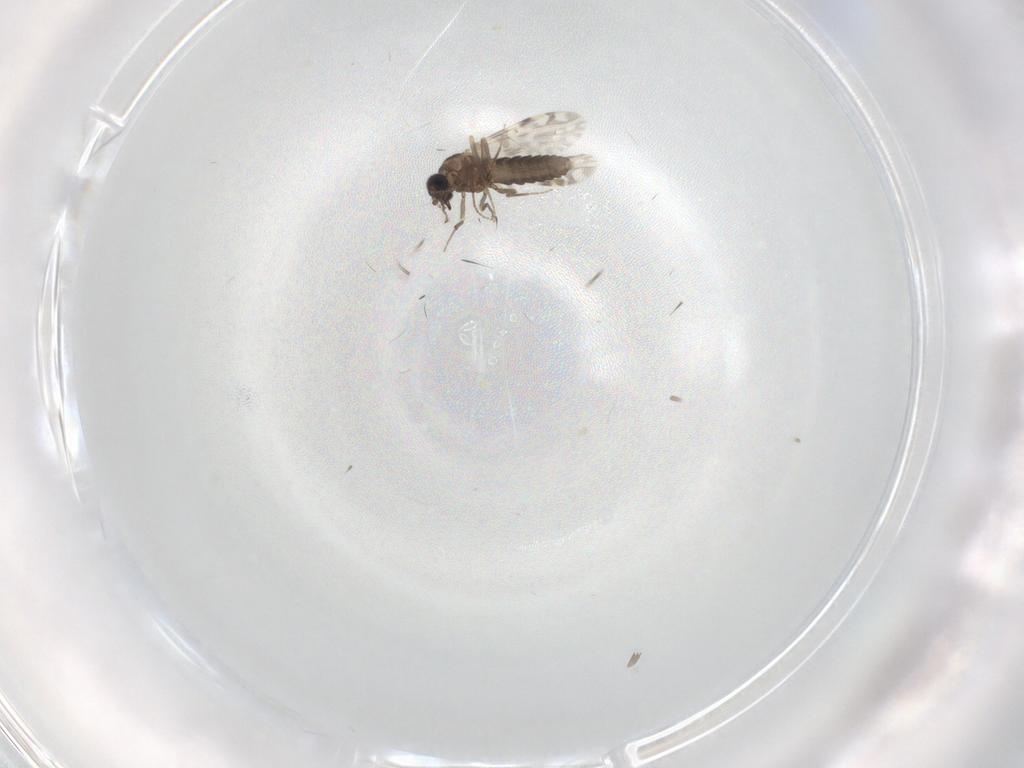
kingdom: Animalia
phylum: Arthropoda
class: Insecta
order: Diptera
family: Ceratopogonidae
